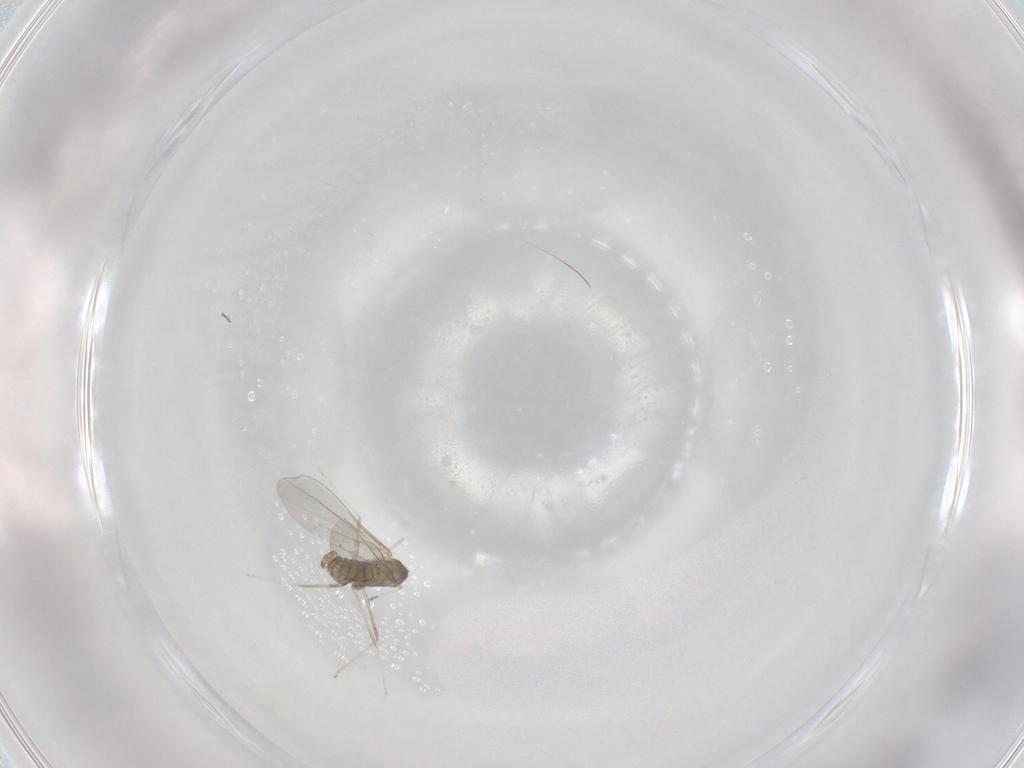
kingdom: Animalia
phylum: Arthropoda
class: Insecta
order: Diptera
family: Cecidomyiidae
